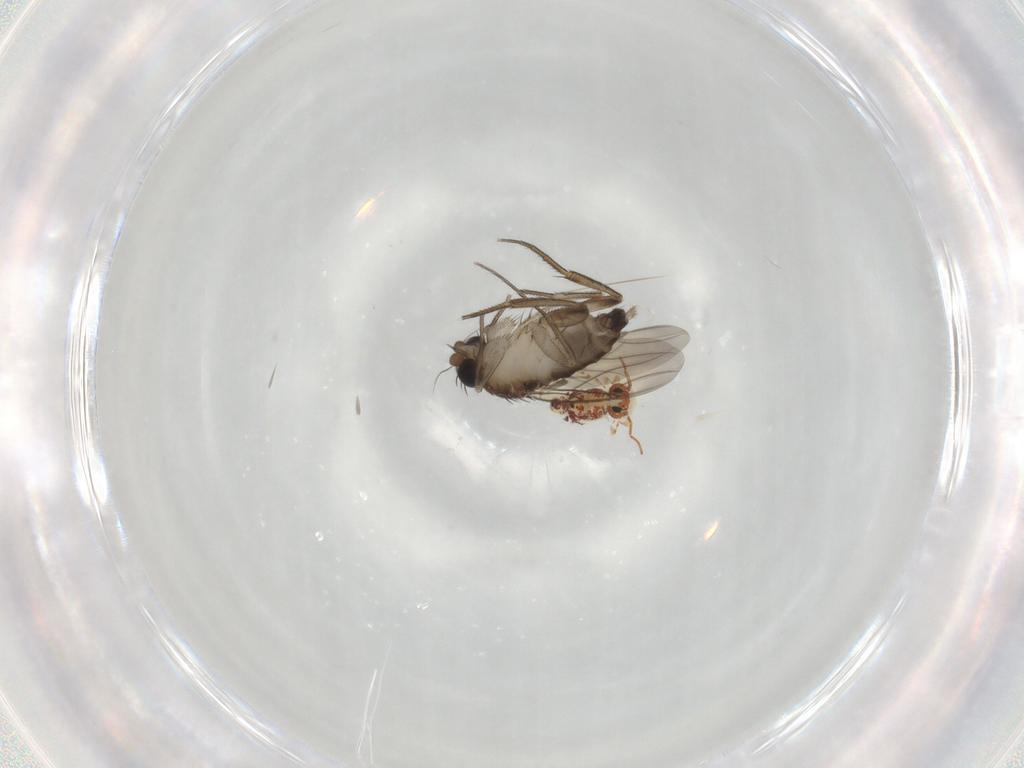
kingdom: Animalia
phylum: Arthropoda
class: Collembola
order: Symphypleona
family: Bourletiellidae
